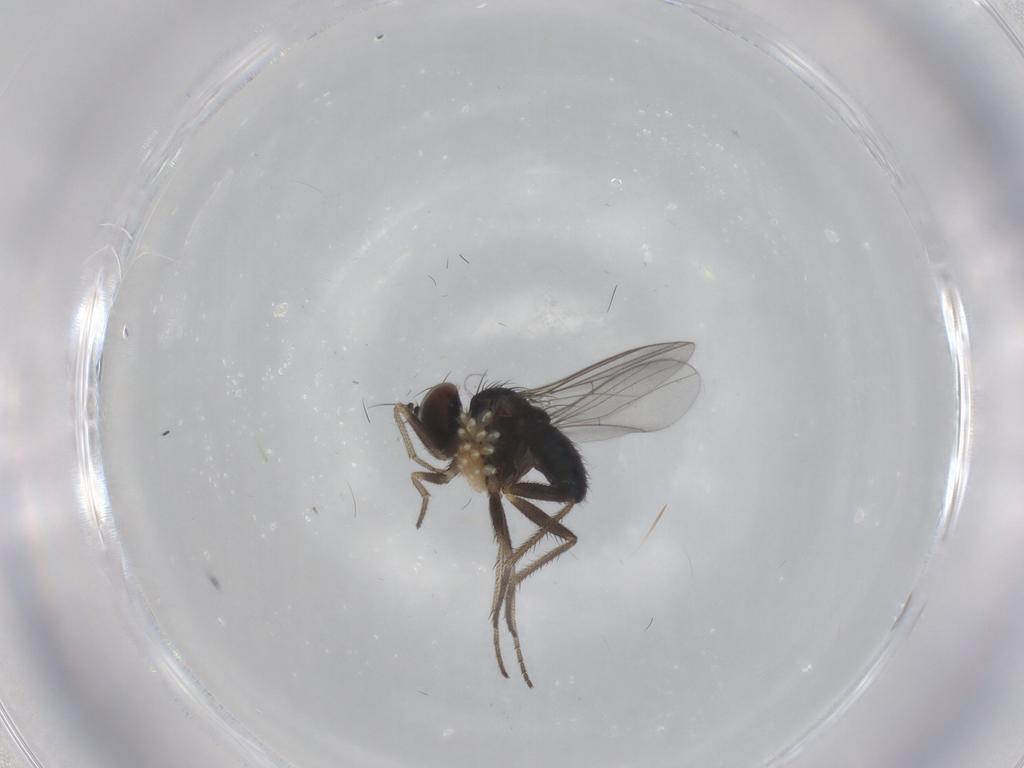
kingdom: Animalia
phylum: Arthropoda
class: Insecta
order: Diptera
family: Dolichopodidae
